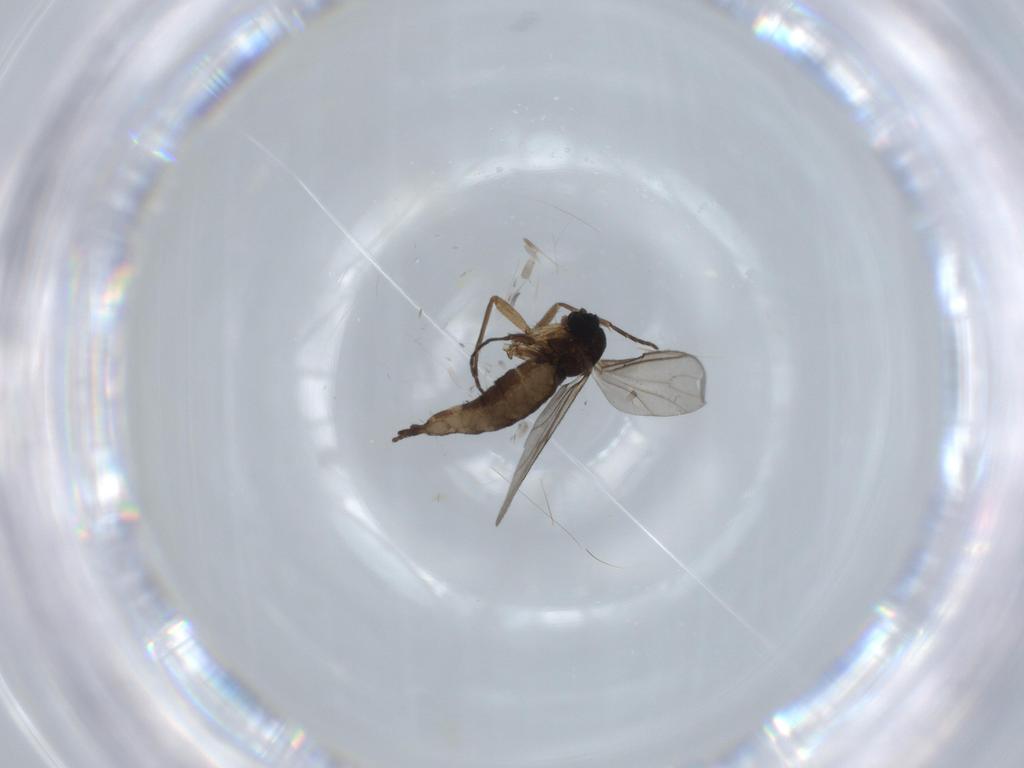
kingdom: Animalia
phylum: Arthropoda
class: Insecta
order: Diptera
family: Sciaridae
